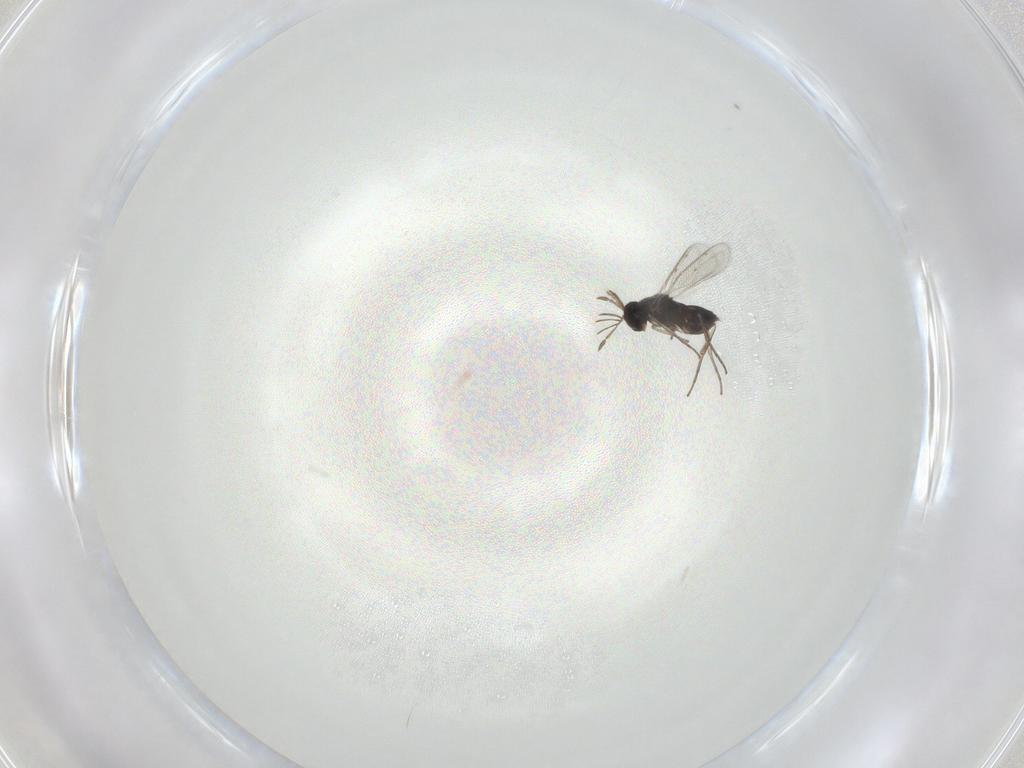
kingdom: Animalia
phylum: Arthropoda
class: Insecta
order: Hymenoptera
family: Eulophidae
